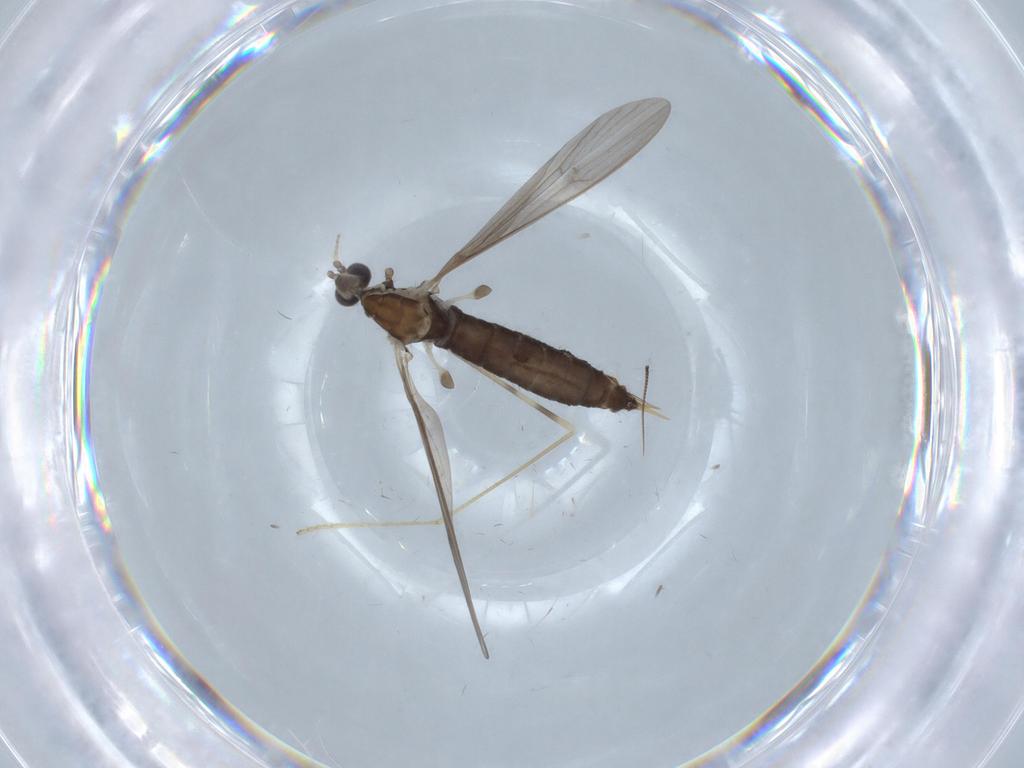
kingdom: Animalia
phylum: Arthropoda
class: Insecta
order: Diptera
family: Limoniidae
